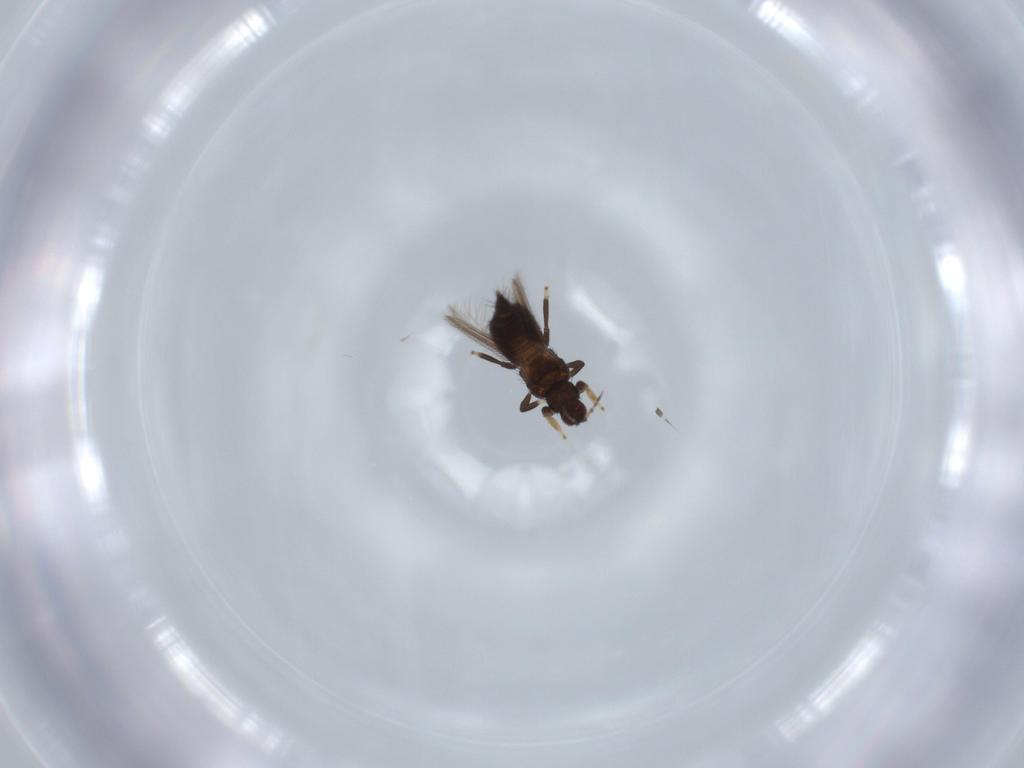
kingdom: Animalia
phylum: Arthropoda
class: Insecta
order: Thysanoptera
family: Thripidae
